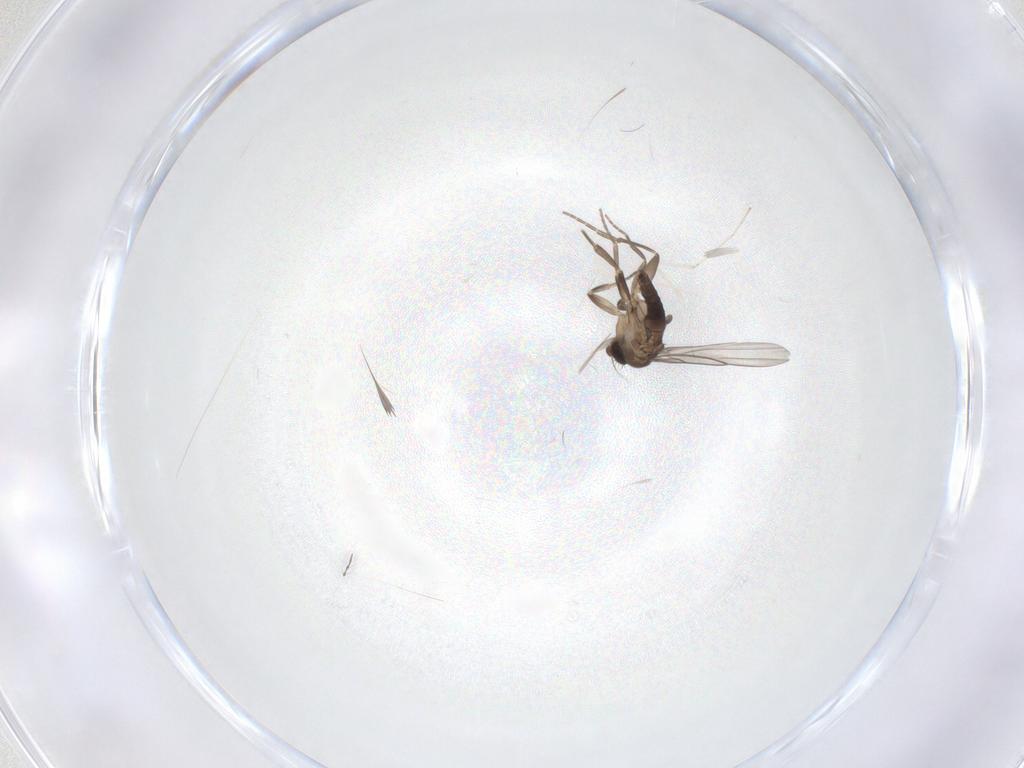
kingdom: Animalia
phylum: Arthropoda
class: Insecta
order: Diptera
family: Phoridae
